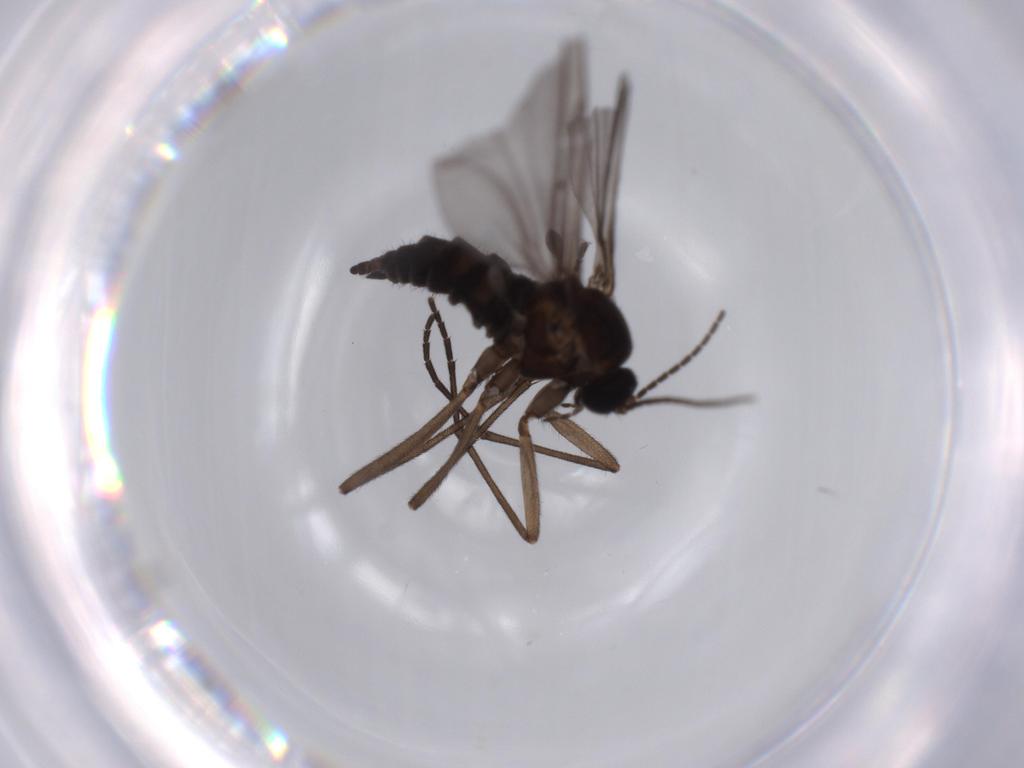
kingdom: Animalia
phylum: Arthropoda
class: Insecta
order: Diptera
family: Sciaridae
